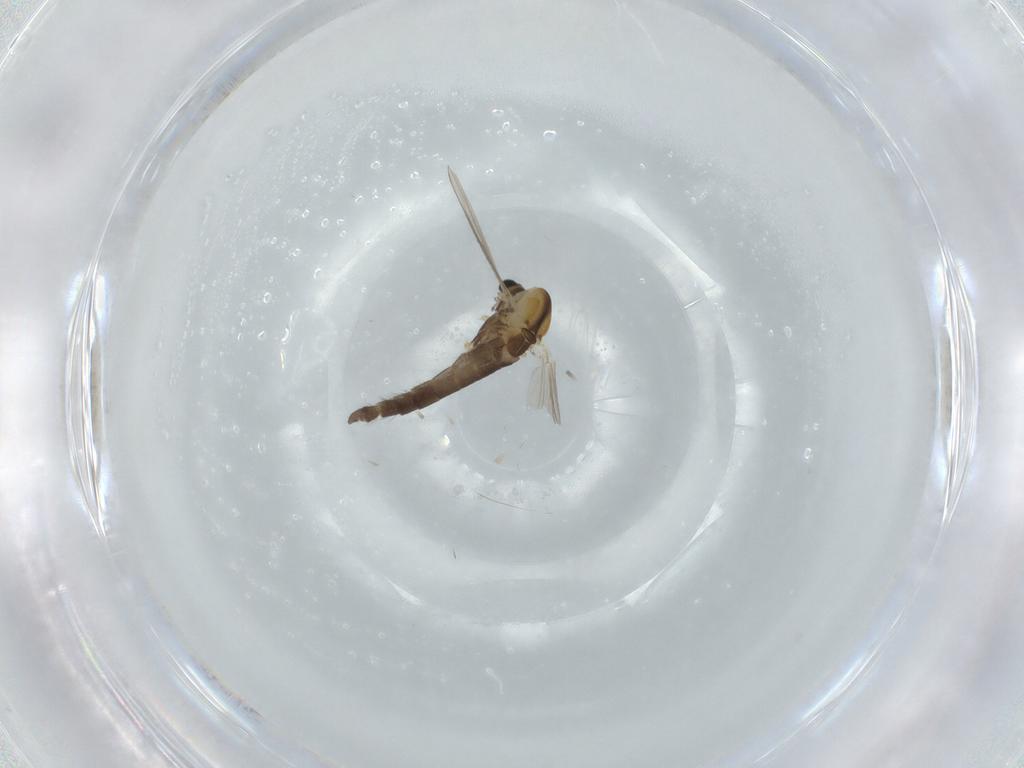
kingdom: Animalia
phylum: Arthropoda
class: Insecta
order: Diptera
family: Chironomidae
